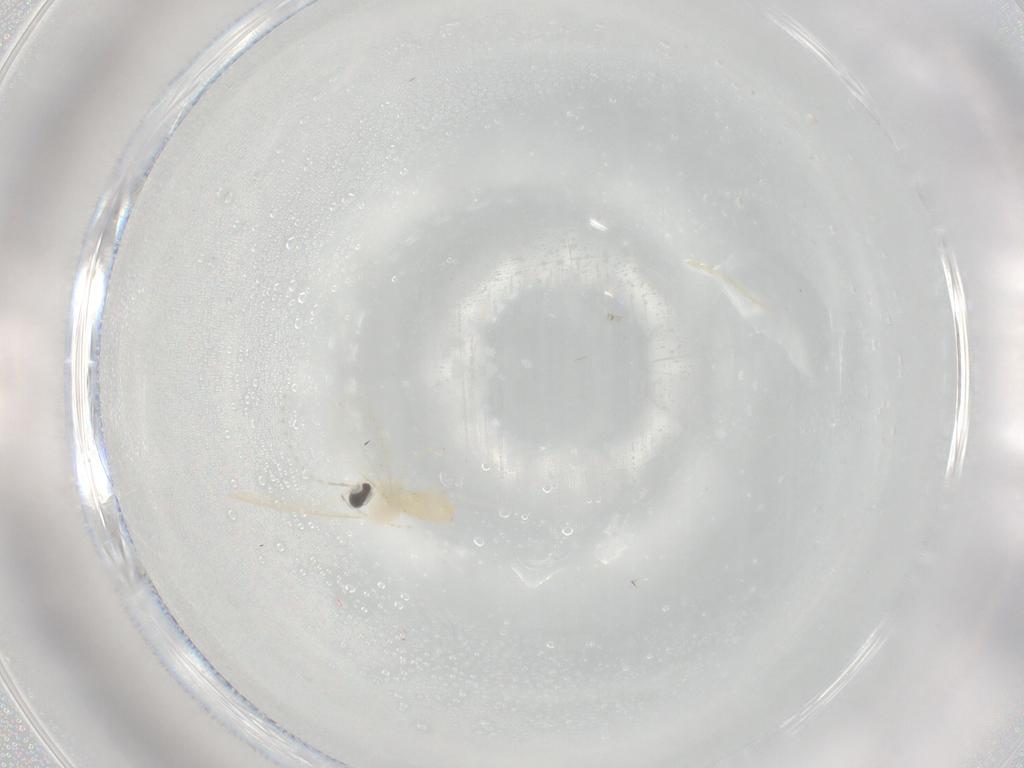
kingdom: Animalia
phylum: Arthropoda
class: Insecta
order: Diptera
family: Cecidomyiidae
